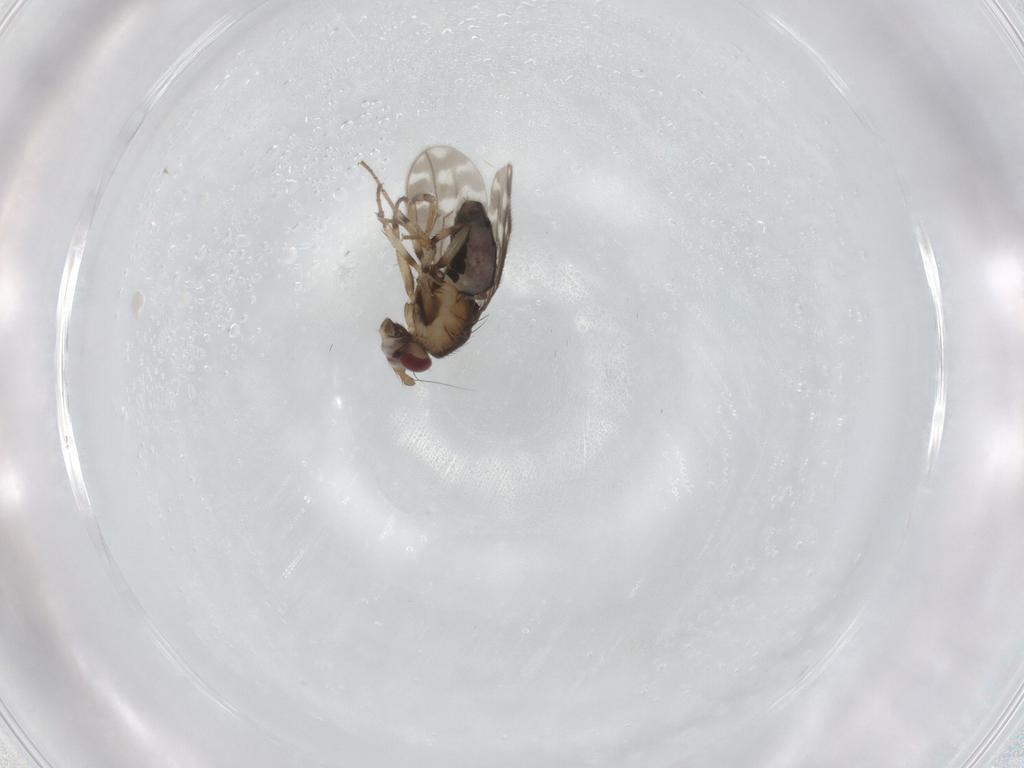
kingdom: Animalia
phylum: Arthropoda
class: Insecta
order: Diptera
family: Sphaeroceridae
